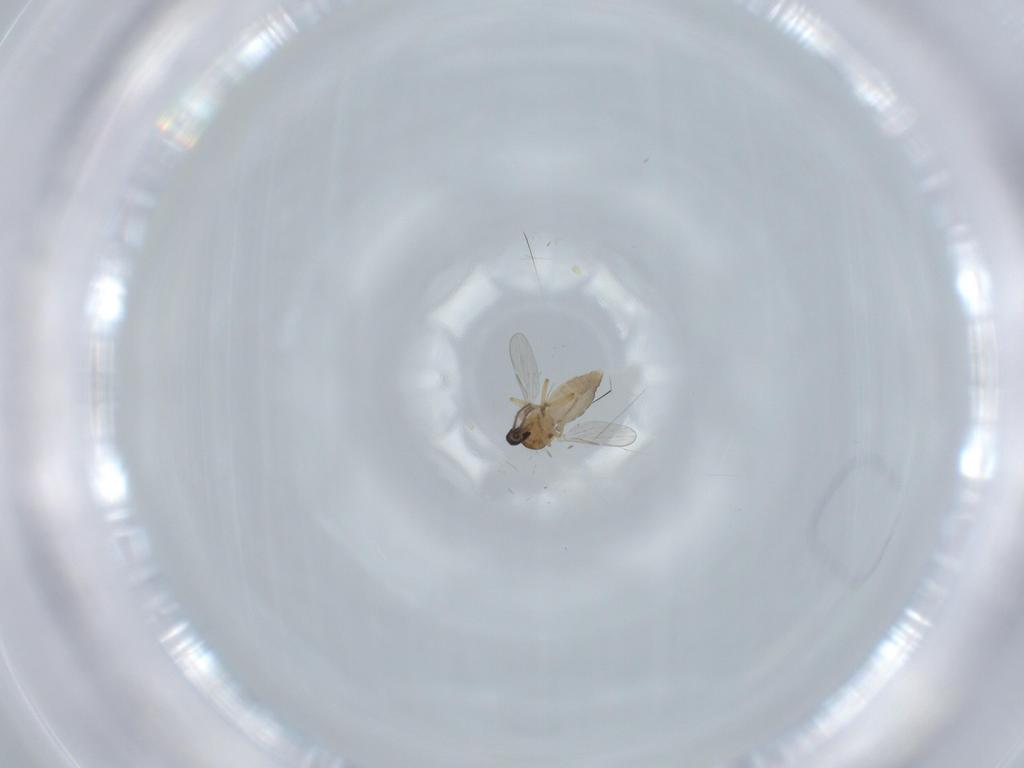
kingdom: Animalia
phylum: Arthropoda
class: Insecta
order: Diptera
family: Ceratopogonidae
